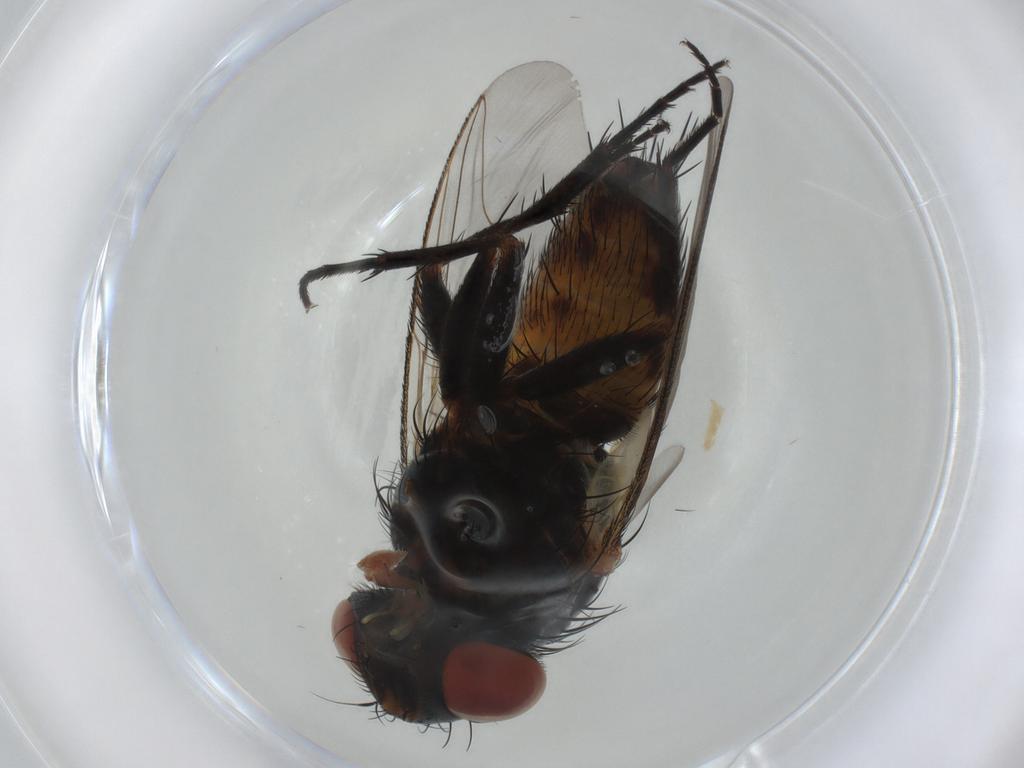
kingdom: Animalia
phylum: Arthropoda
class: Insecta
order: Diptera
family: Sarcophagidae
